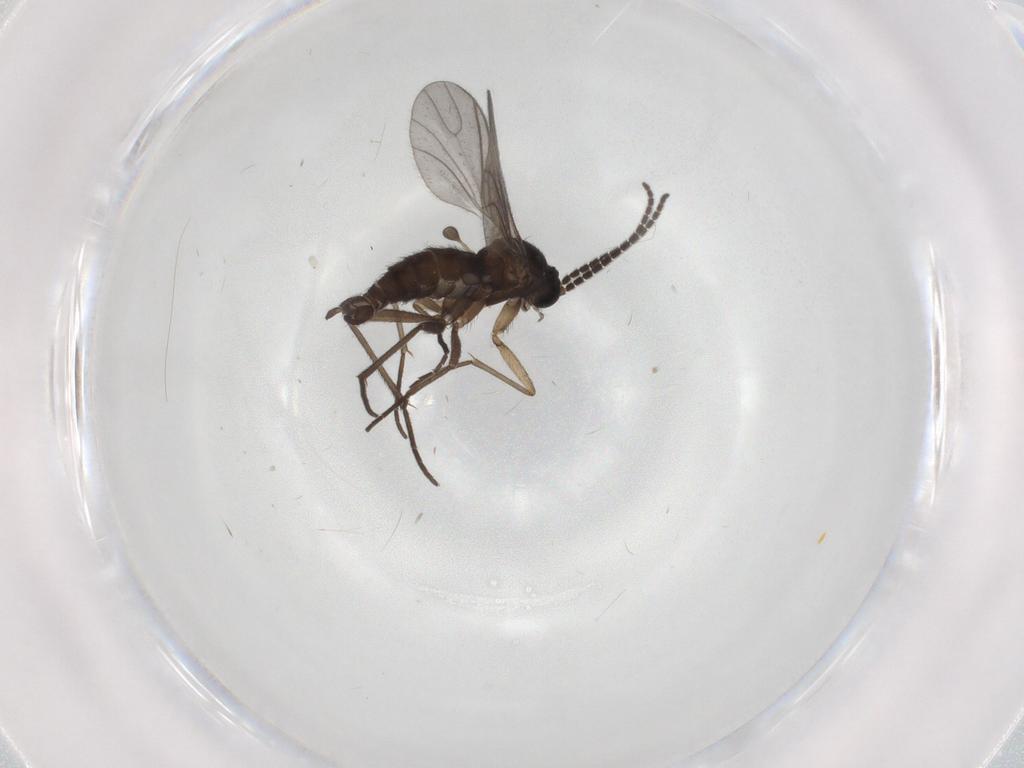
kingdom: Animalia
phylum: Arthropoda
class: Insecta
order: Diptera
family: Sciaridae
